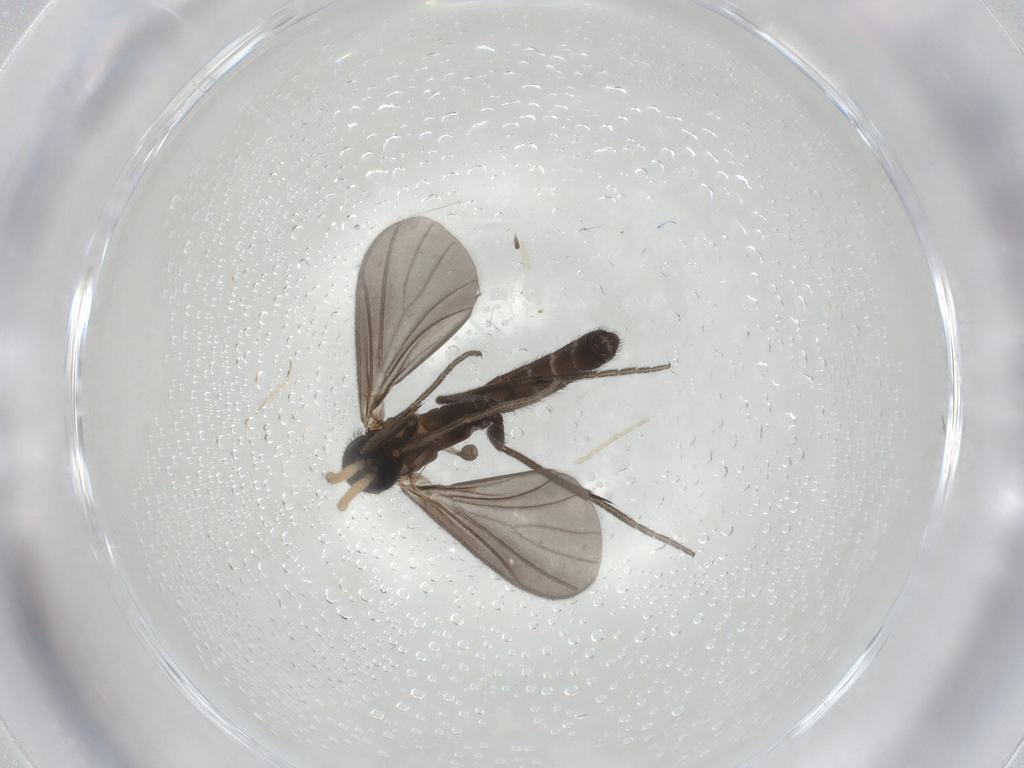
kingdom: Animalia
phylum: Arthropoda
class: Insecta
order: Diptera
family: Mycetophilidae
